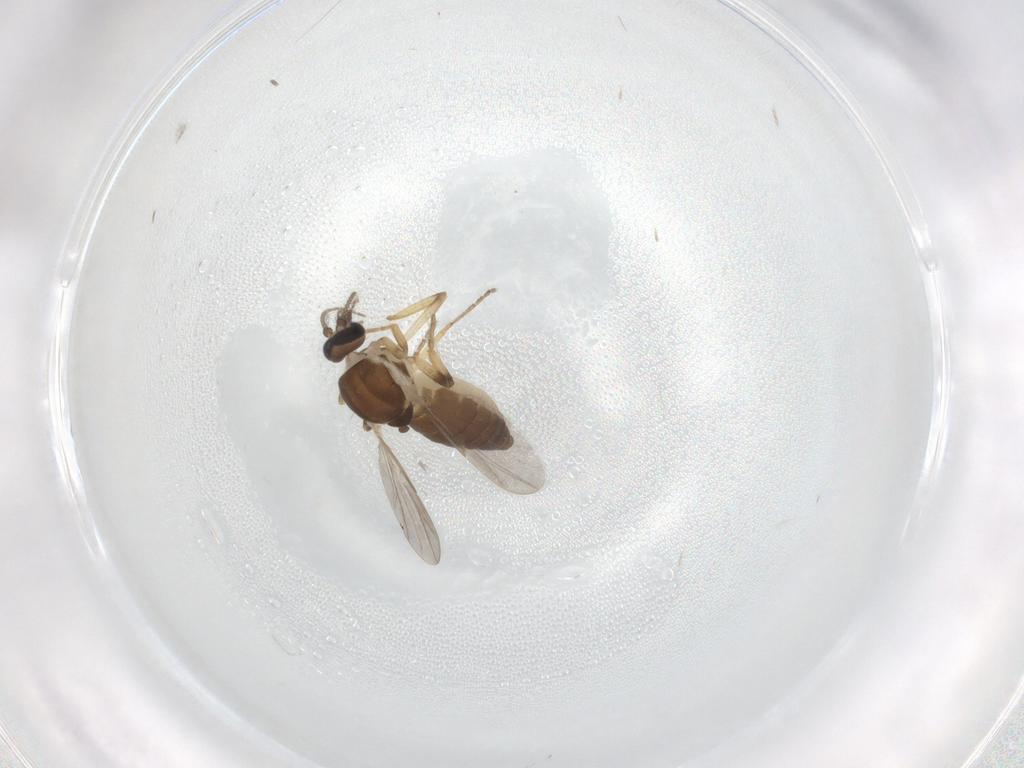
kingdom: Animalia
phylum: Arthropoda
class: Insecta
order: Diptera
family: Ceratopogonidae
